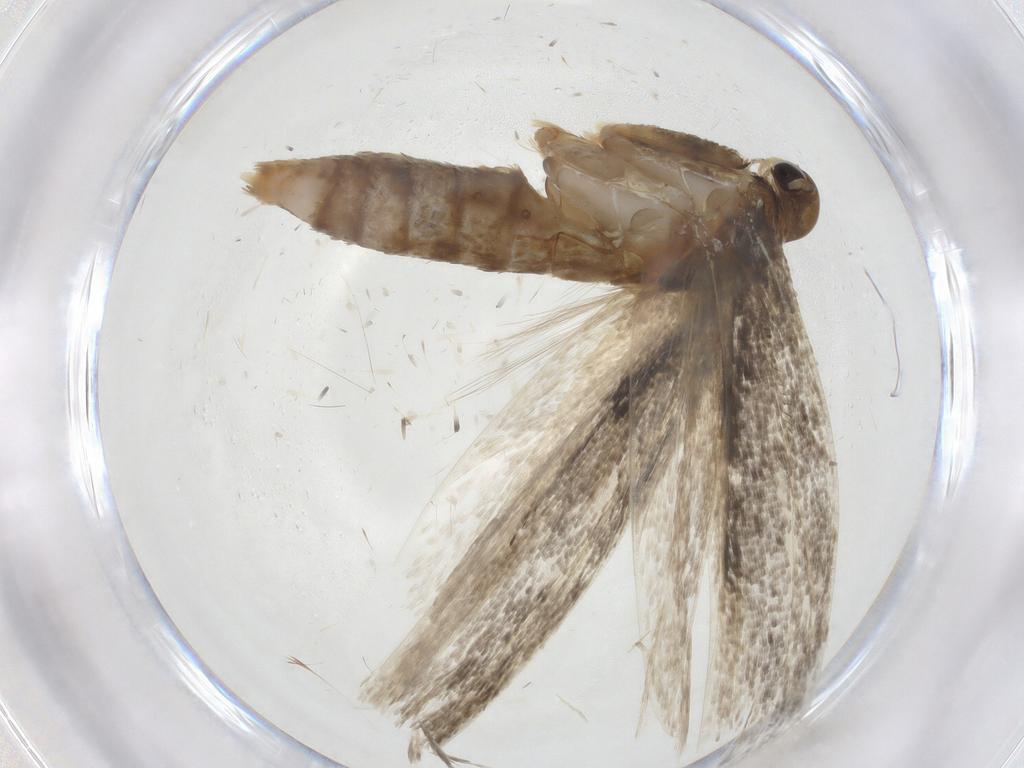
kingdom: Animalia
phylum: Arthropoda
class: Insecta
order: Lepidoptera
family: Gelechiidae
